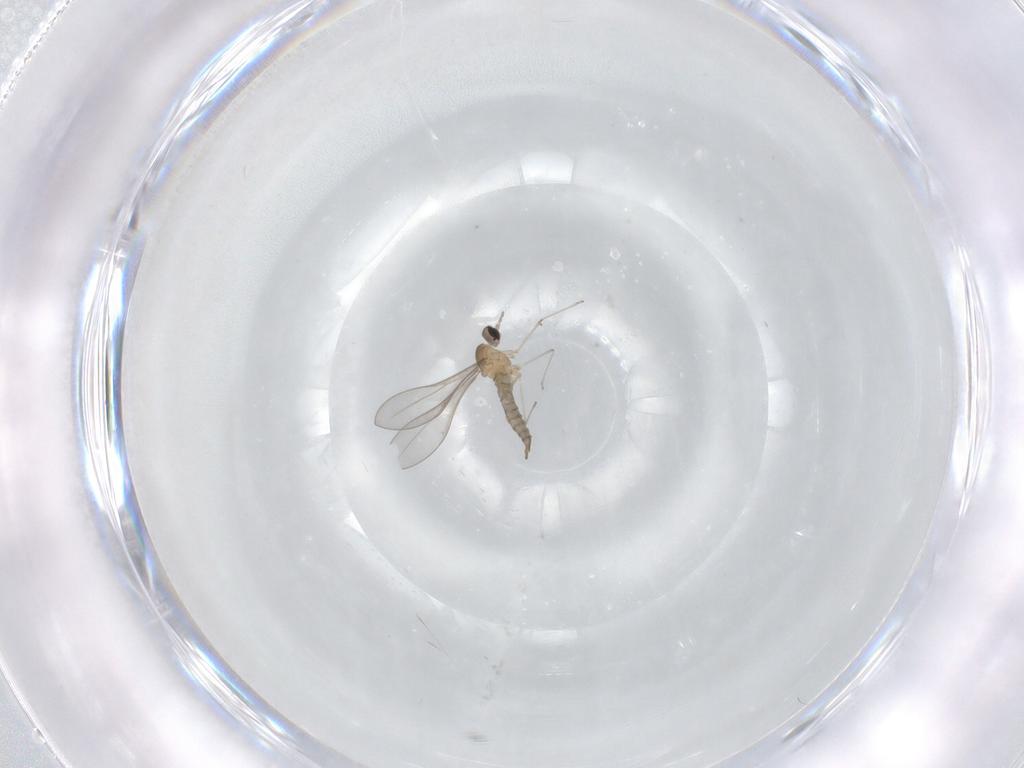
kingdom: Animalia
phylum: Arthropoda
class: Insecta
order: Diptera
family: Cecidomyiidae
